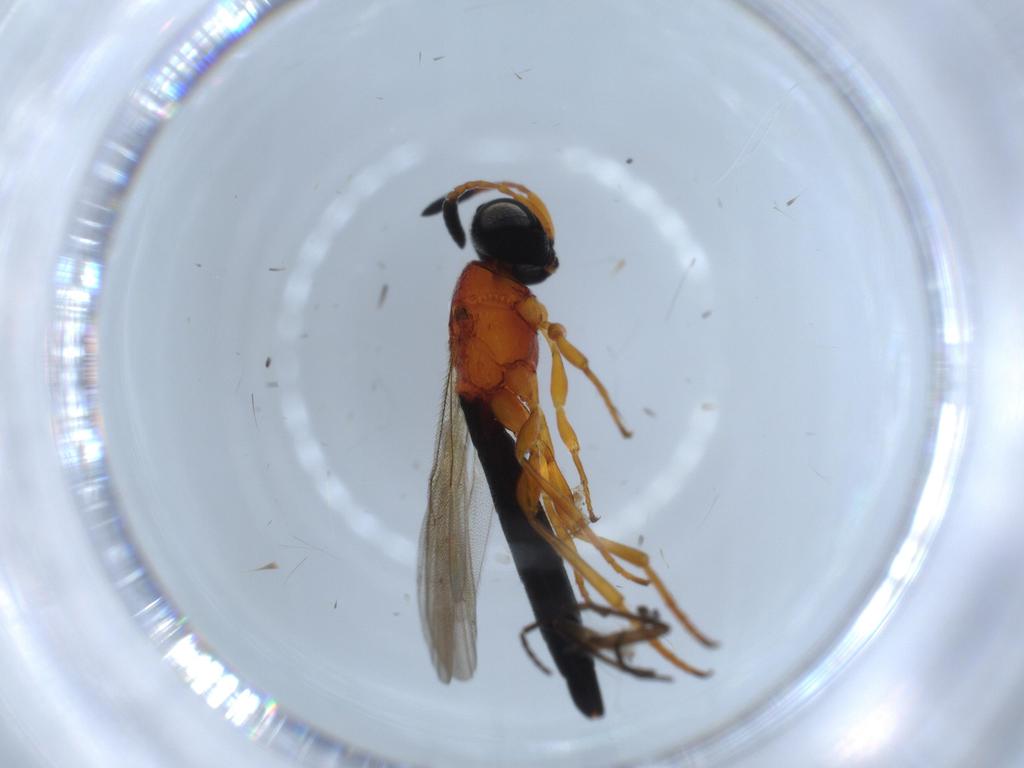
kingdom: Animalia
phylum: Arthropoda
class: Insecta
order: Hymenoptera
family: Scelionidae
